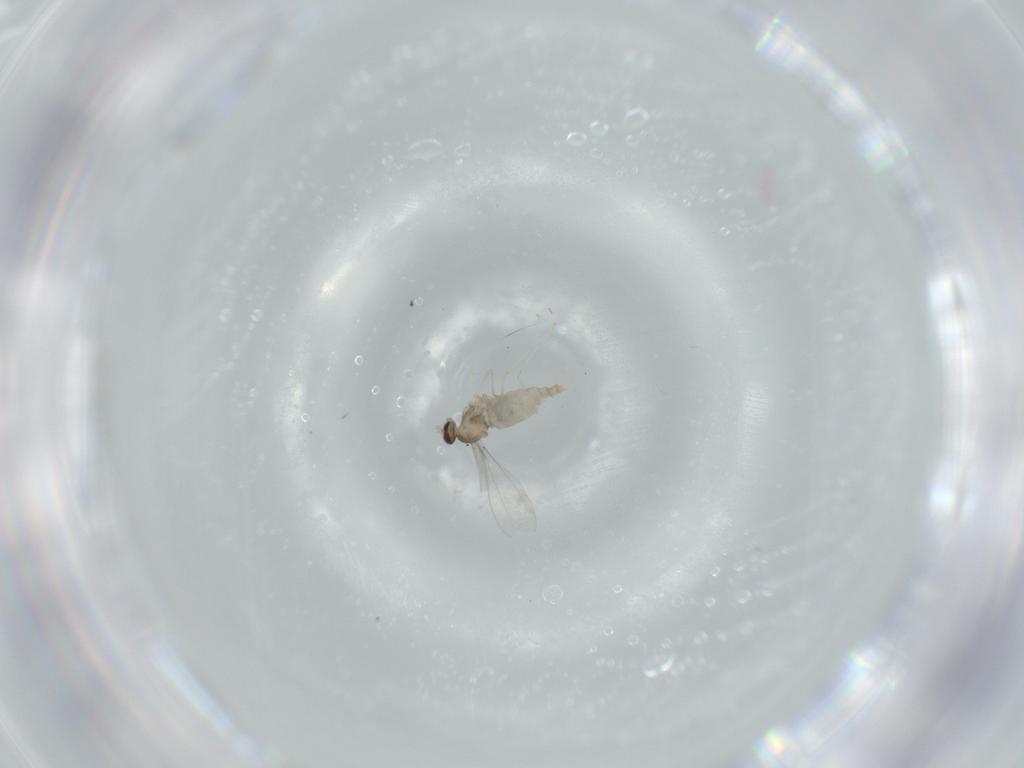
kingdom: Animalia
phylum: Arthropoda
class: Insecta
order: Diptera
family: Cecidomyiidae
